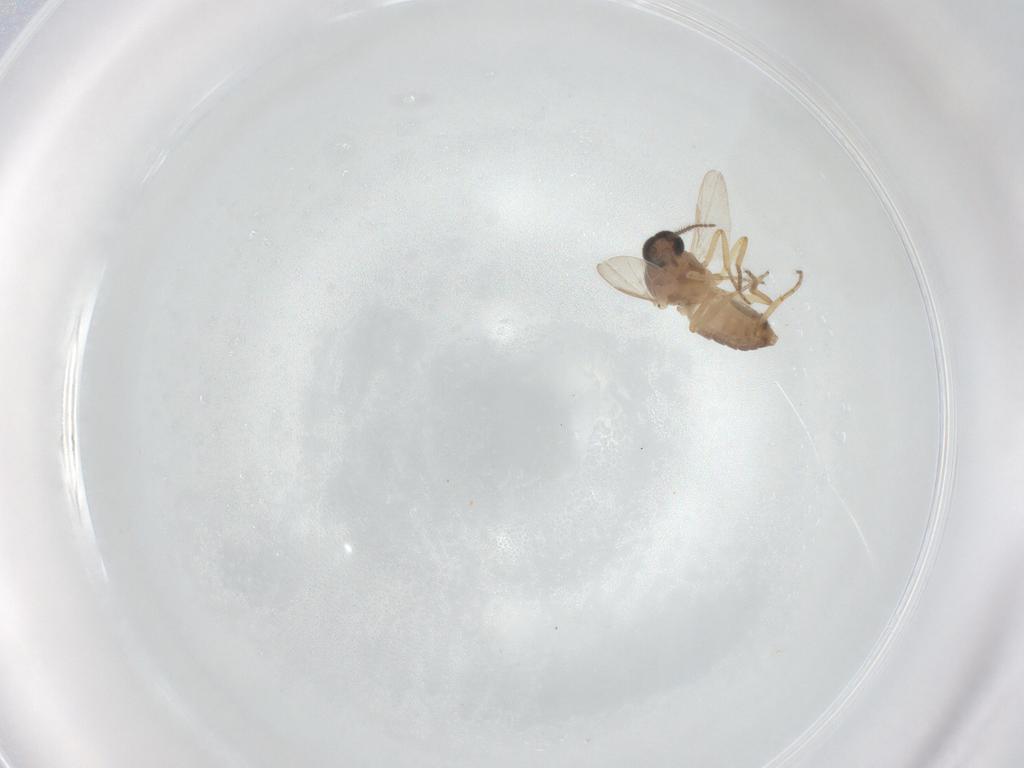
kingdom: Animalia
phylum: Arthropoda
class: Insecta
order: Diptera
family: Ceratopogonidae
